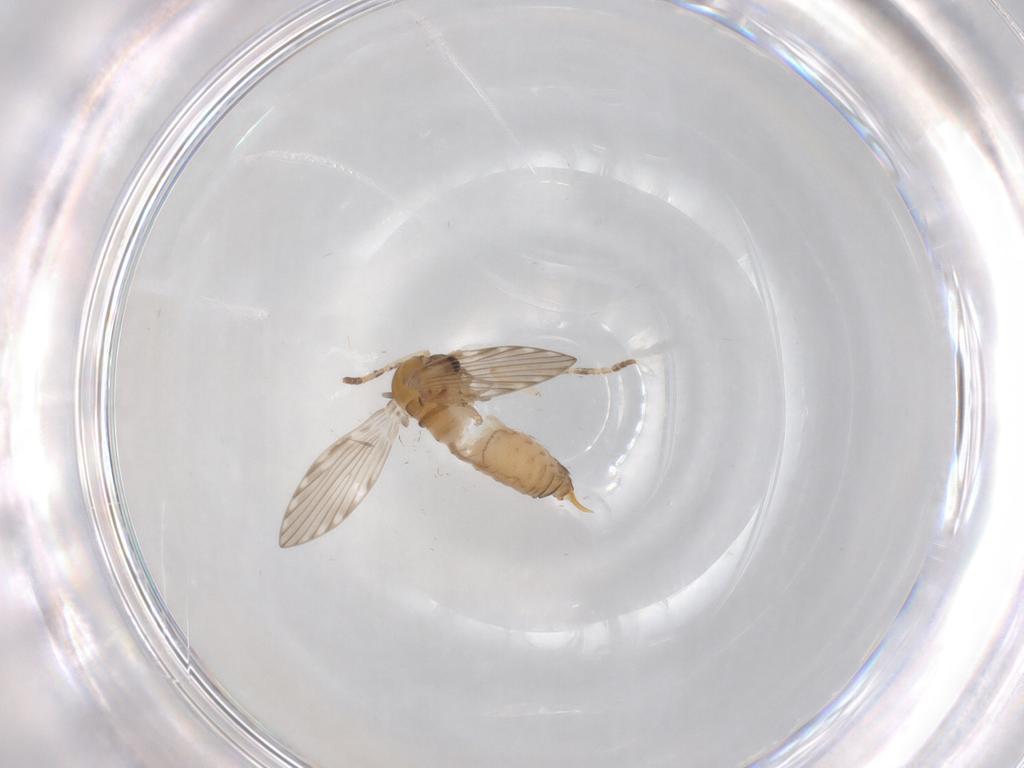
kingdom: Animalia
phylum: Arthropoda
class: Insecta
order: Diptera
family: Psychodidae
